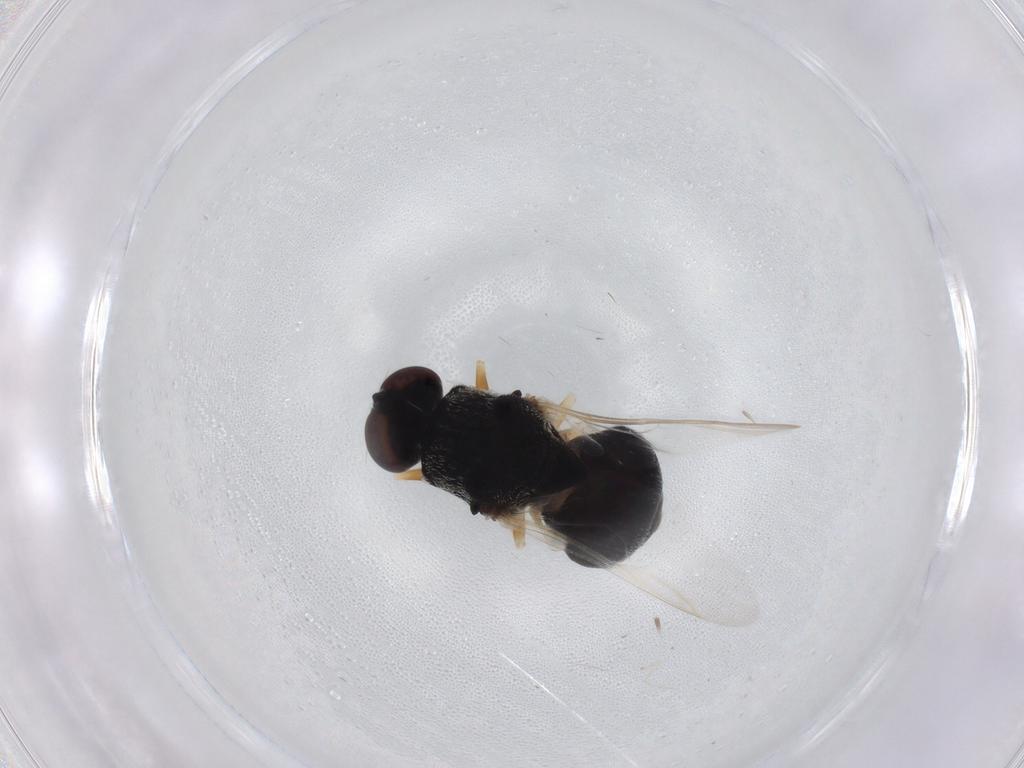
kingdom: Animalia
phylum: Arthropoda
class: Insecta
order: Diptera
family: Stratiomyidae
